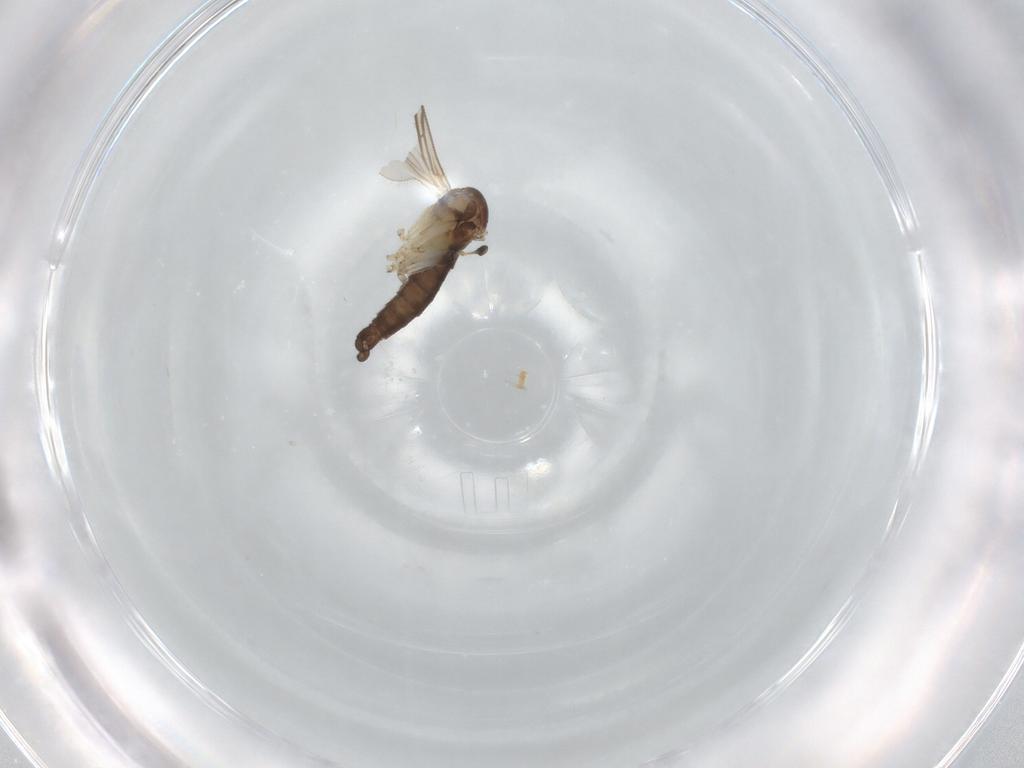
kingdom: Animalia
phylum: Arthropoda
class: Insecta
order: Diptera
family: Sciaridae
